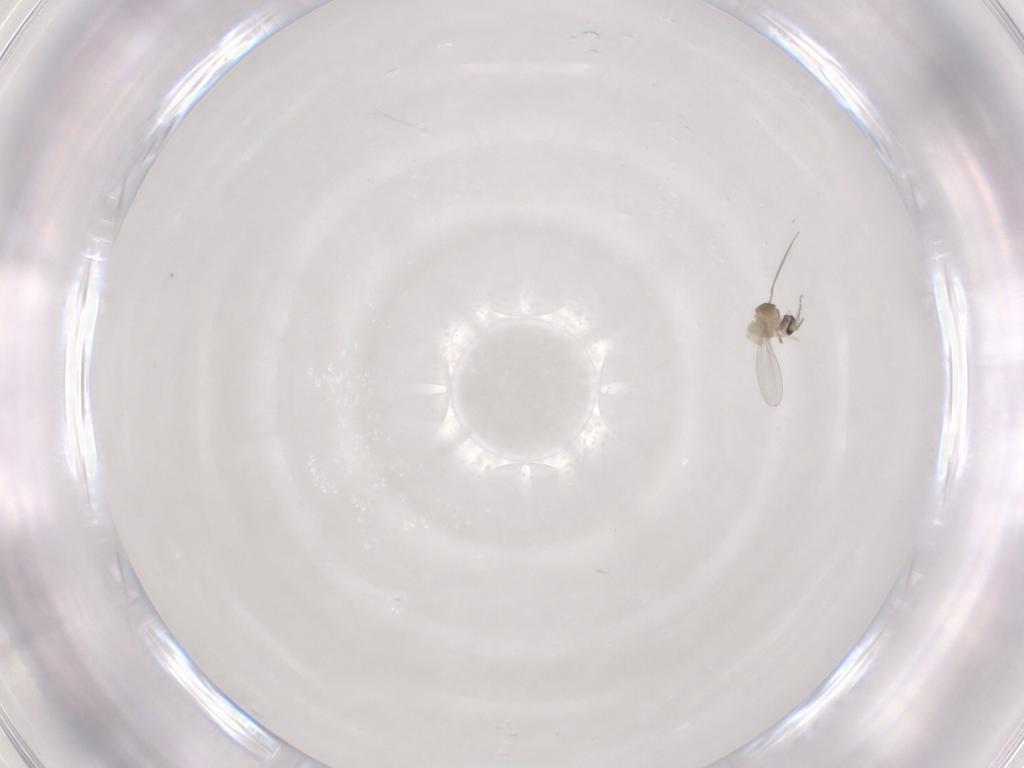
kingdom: Animalia
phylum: Arthropoda
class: Insecta
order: Diptera
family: Cecidomyiidae
